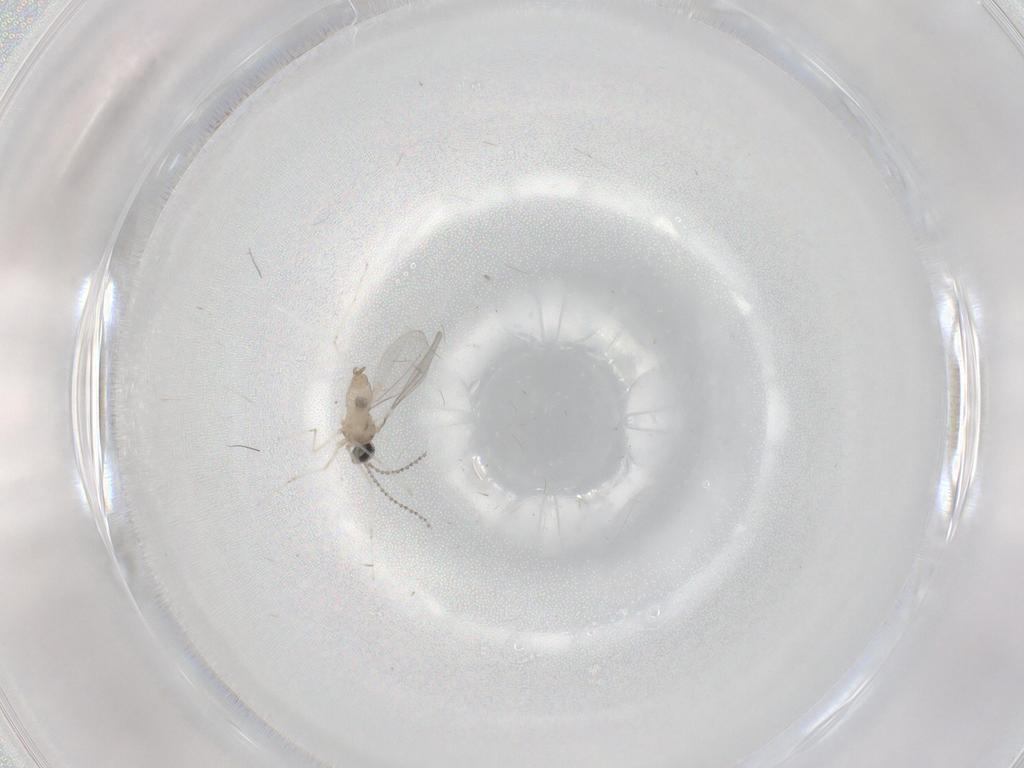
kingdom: Animalia
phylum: Arthropoda
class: Insecta
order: Diptera
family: Cecidomyiidae
